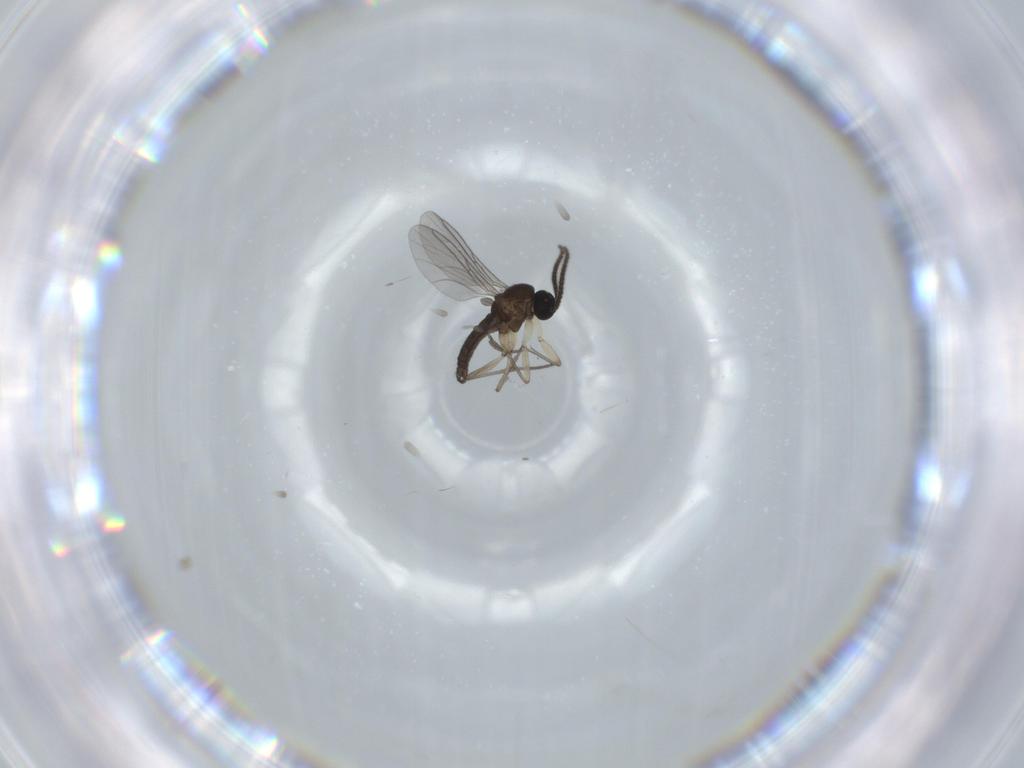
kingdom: Animalia
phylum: Arthropoda
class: Insecta
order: Diptera
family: Sciaridae
